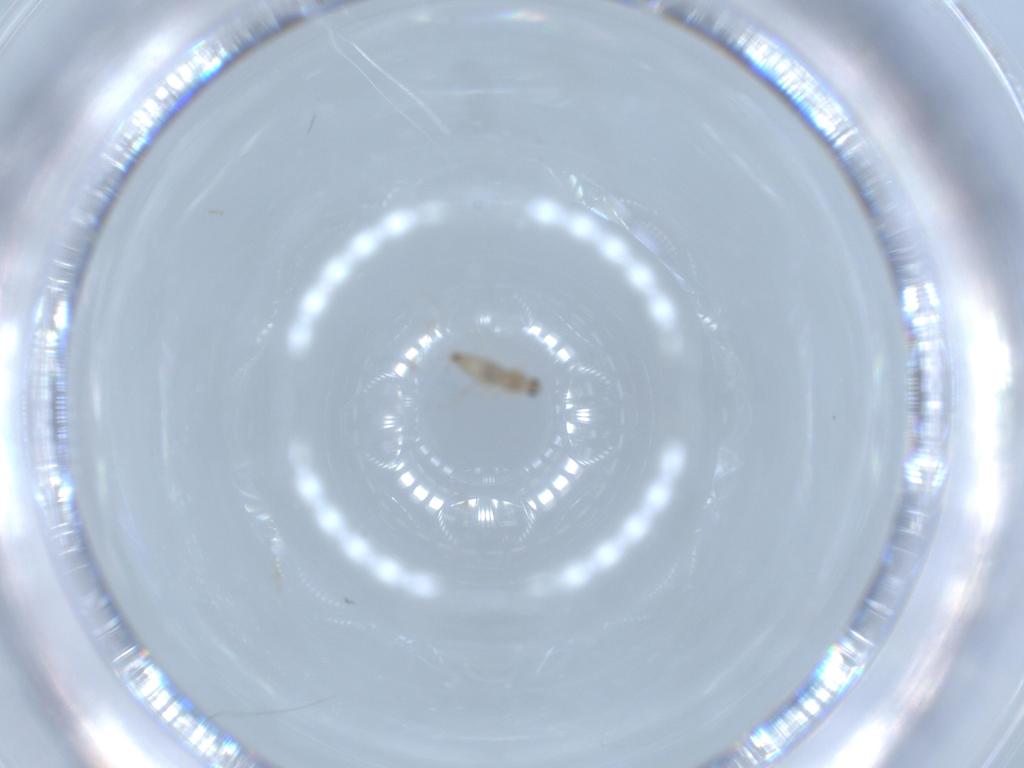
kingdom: Animalia
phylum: Arthropoda
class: Insecta
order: Diptera
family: Cecidomyiidae
